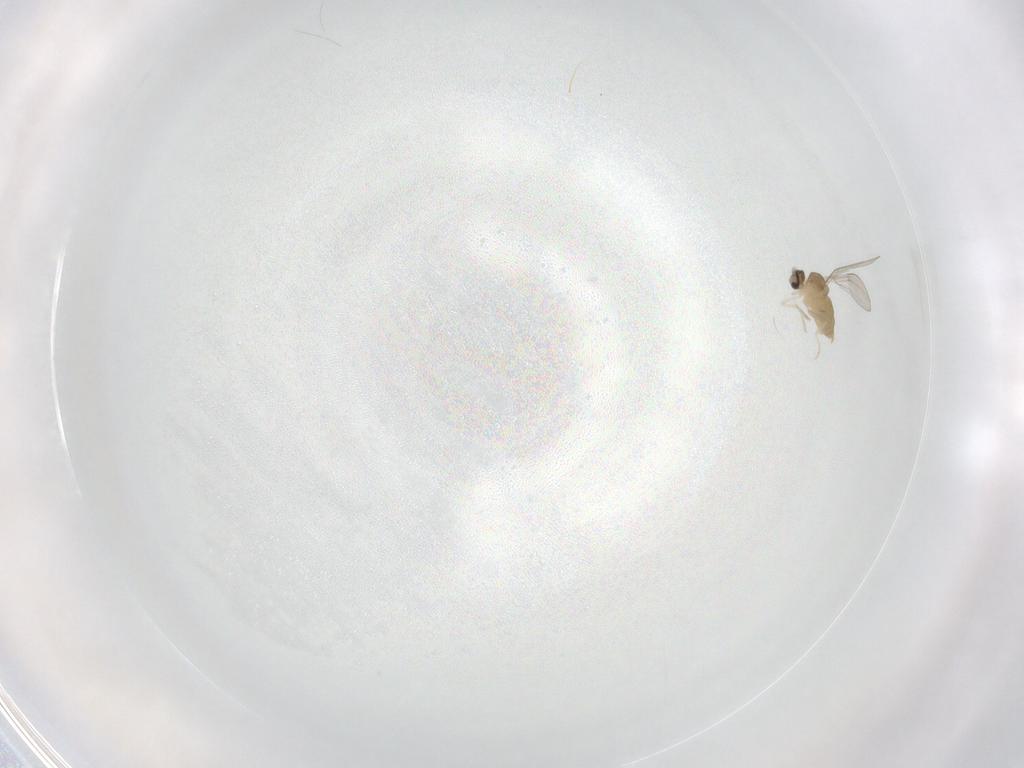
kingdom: Animalia
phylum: Arthropoda
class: Insecta
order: Diptera
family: Cecidomyiidae
